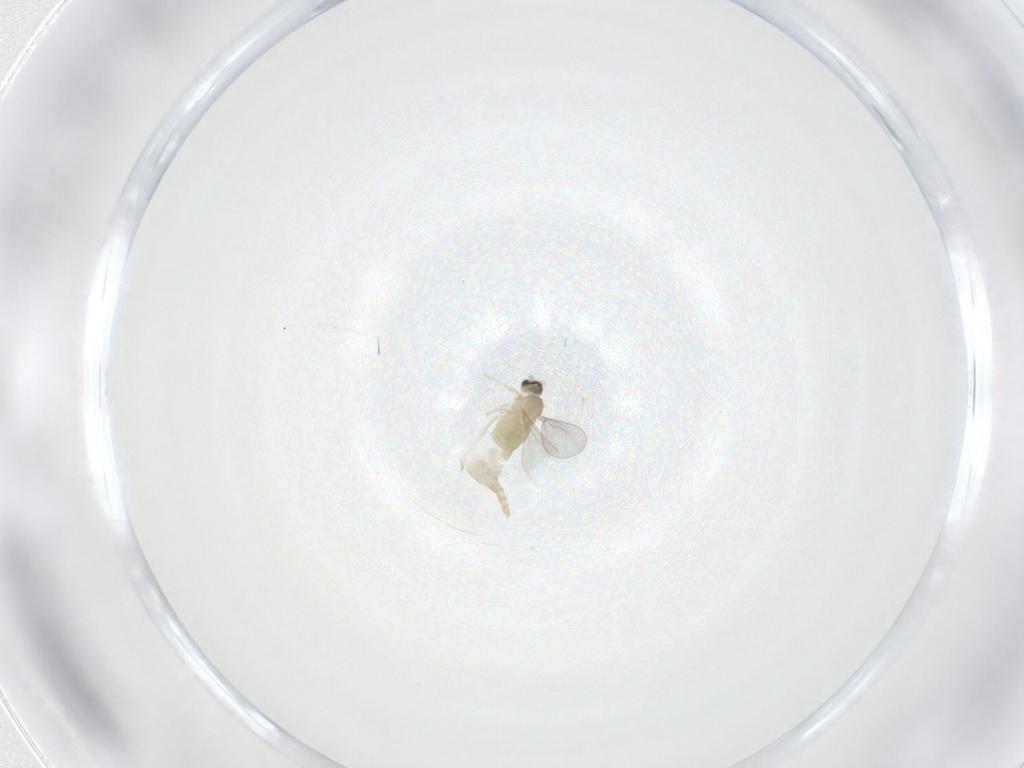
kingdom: Animalia
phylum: Arthropoda
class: Insecta
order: Diptera
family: Cecidomyiidae
